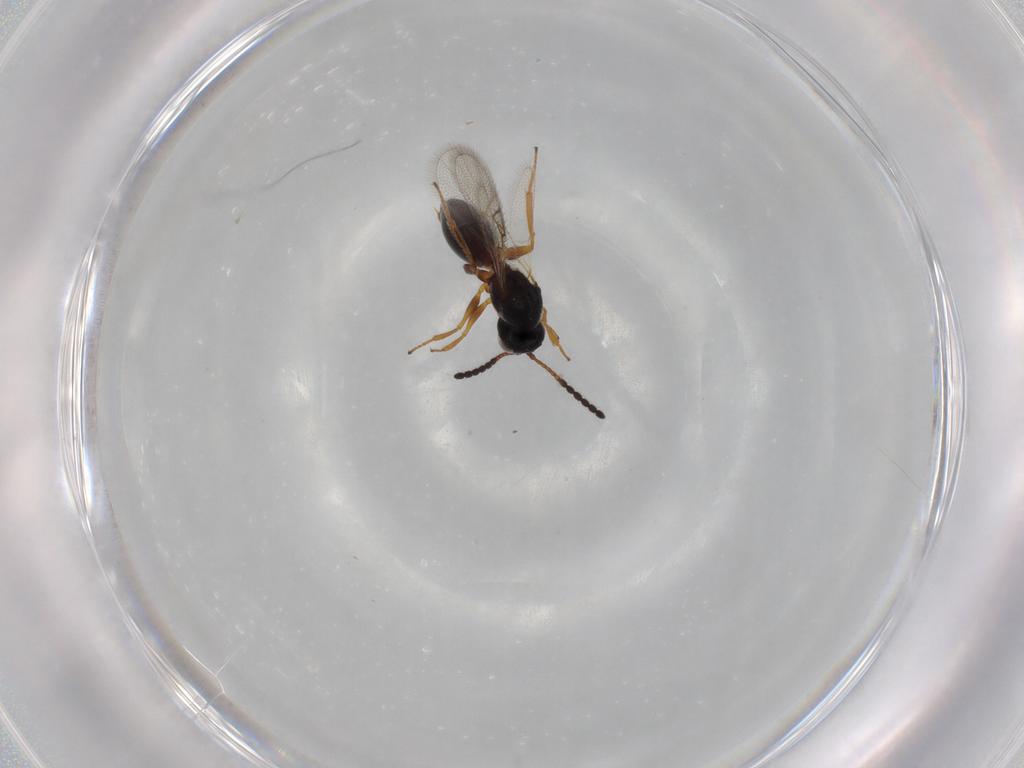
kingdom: Animalia
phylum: Arthropoda
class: Insecta
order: Hymenoptera
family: Figitidae
